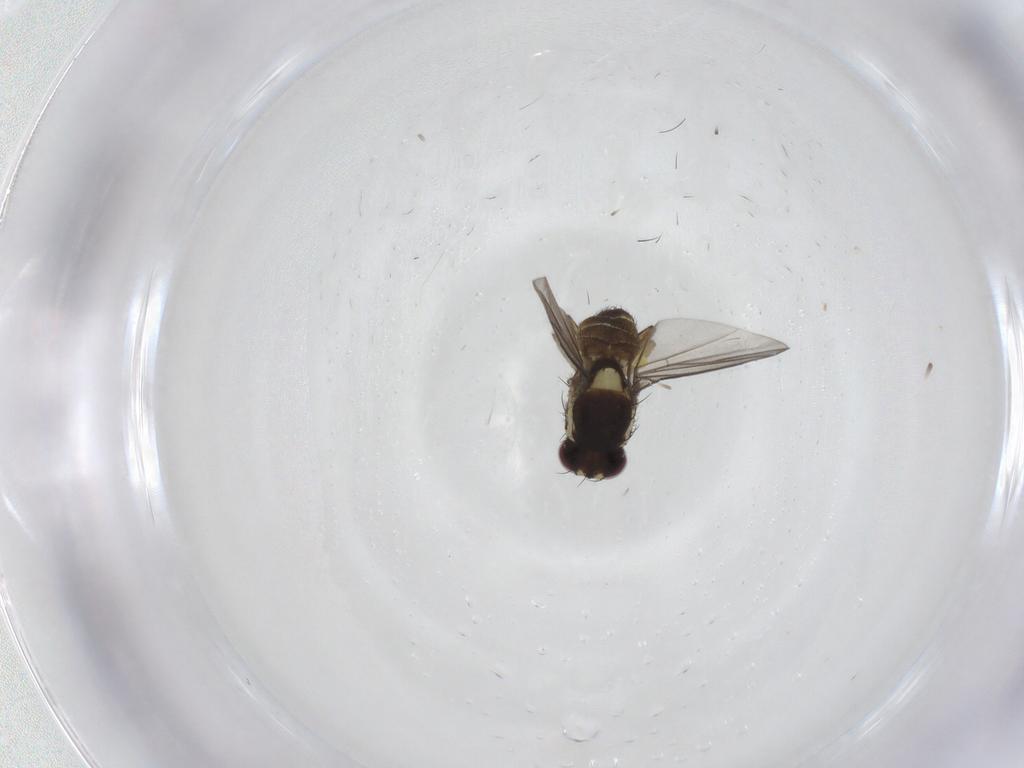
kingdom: Animalia
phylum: Arthropoda
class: Insecta
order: Diptera
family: Agromyzidae
